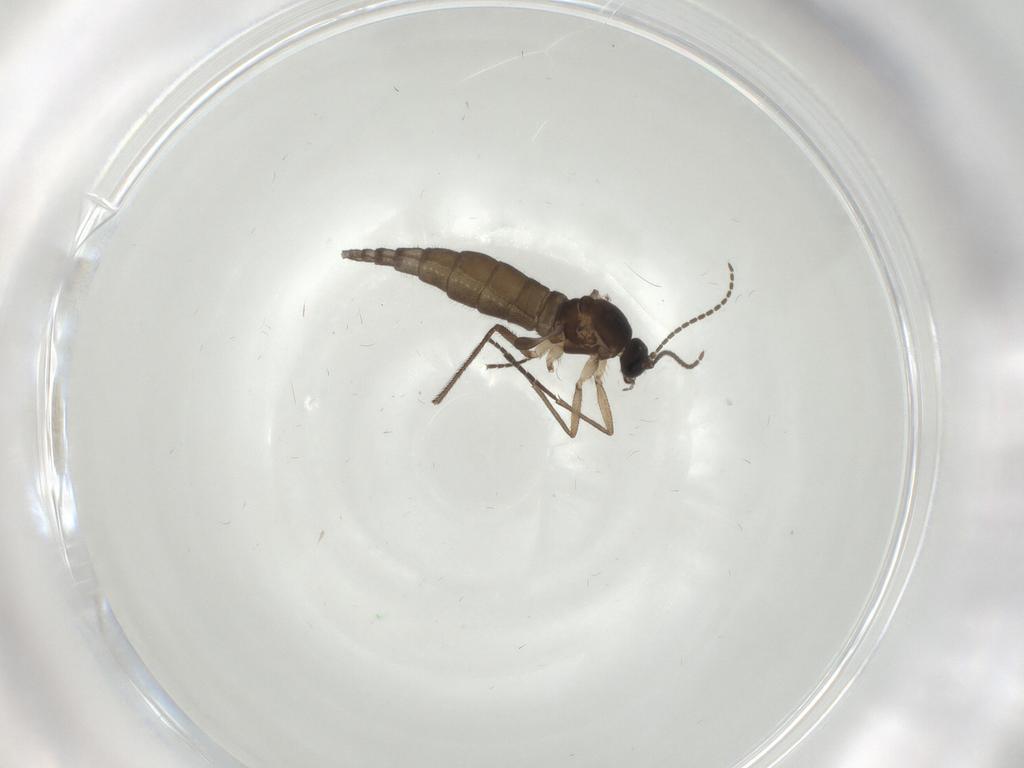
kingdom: Animalia
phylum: Arthropoda
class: Insecta
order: Diptera
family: Sciaridae
